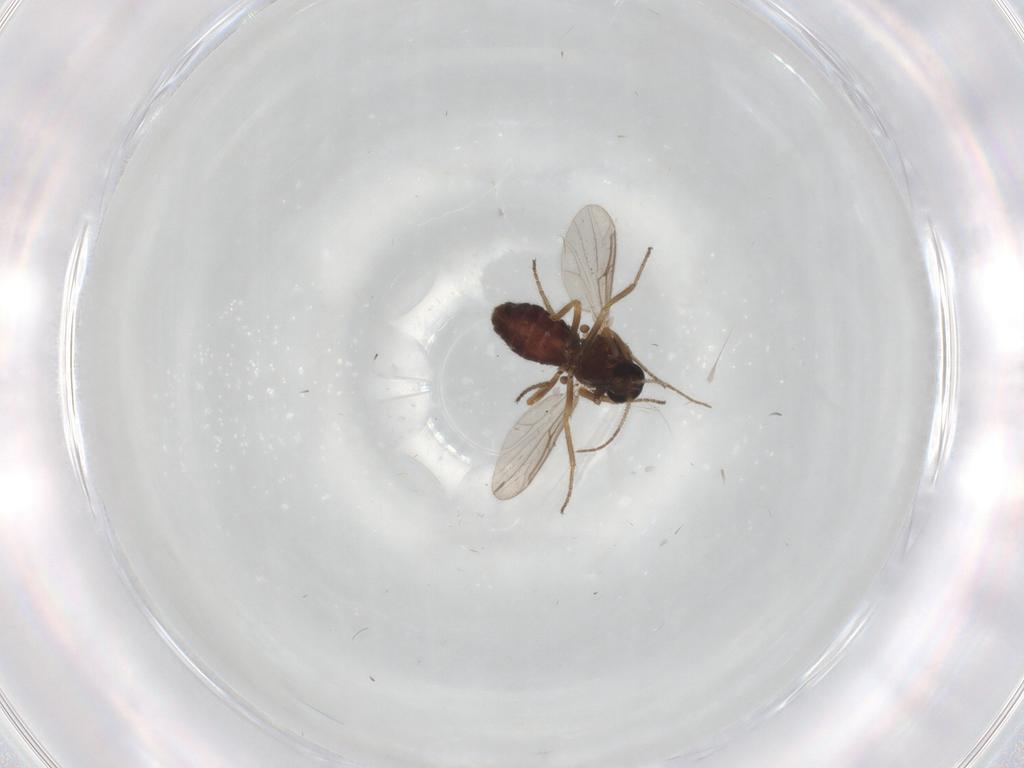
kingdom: Animalia
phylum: Arthropoda
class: Insecta
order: Diptera
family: Ceratopogonidae
